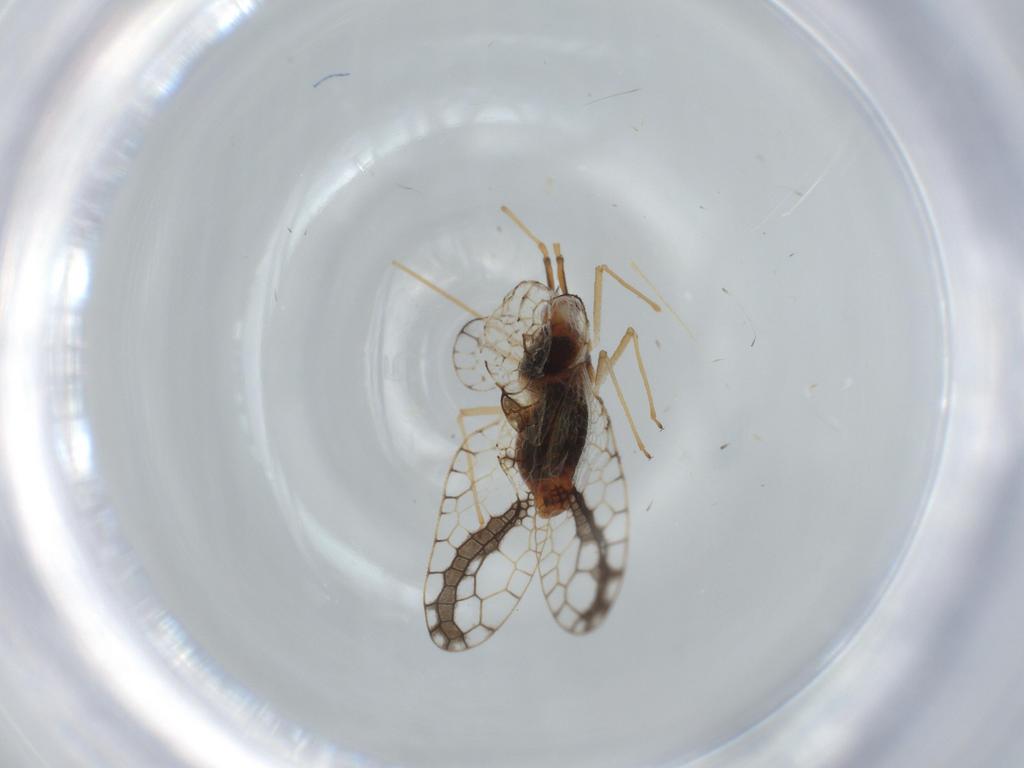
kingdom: Animalia
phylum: Arthropoda
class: Insecta
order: Hemiptera
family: Tingidae
